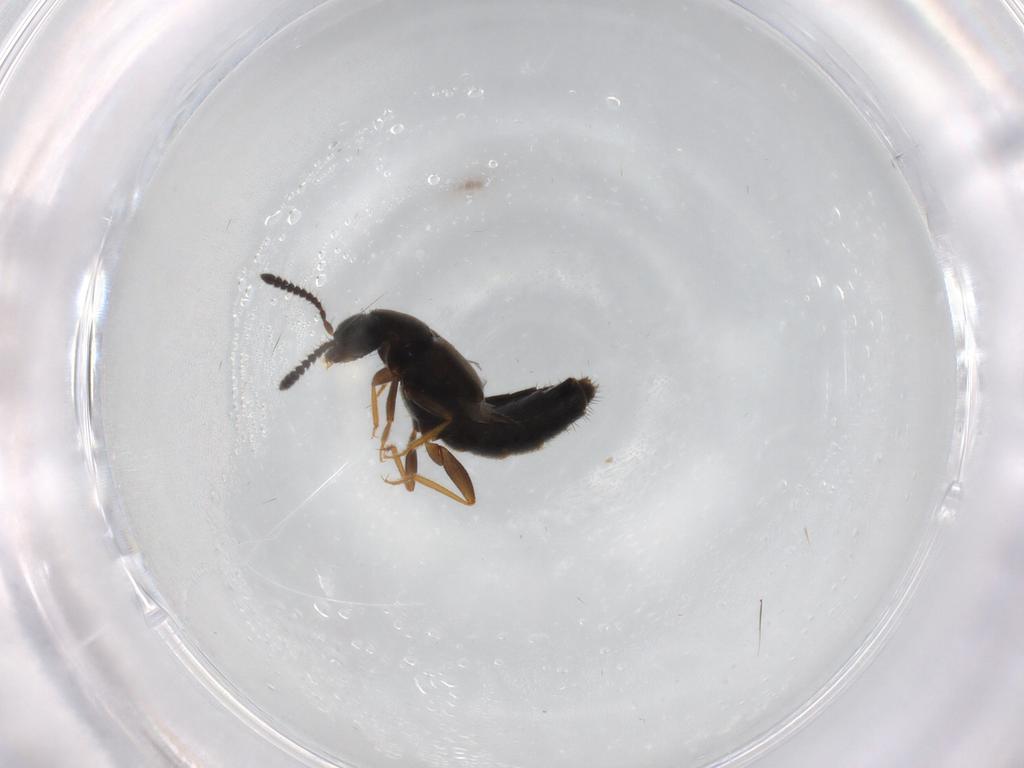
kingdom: Animalia
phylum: Arthropoda
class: Insecta
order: Coleoptera
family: Staphylinidae
